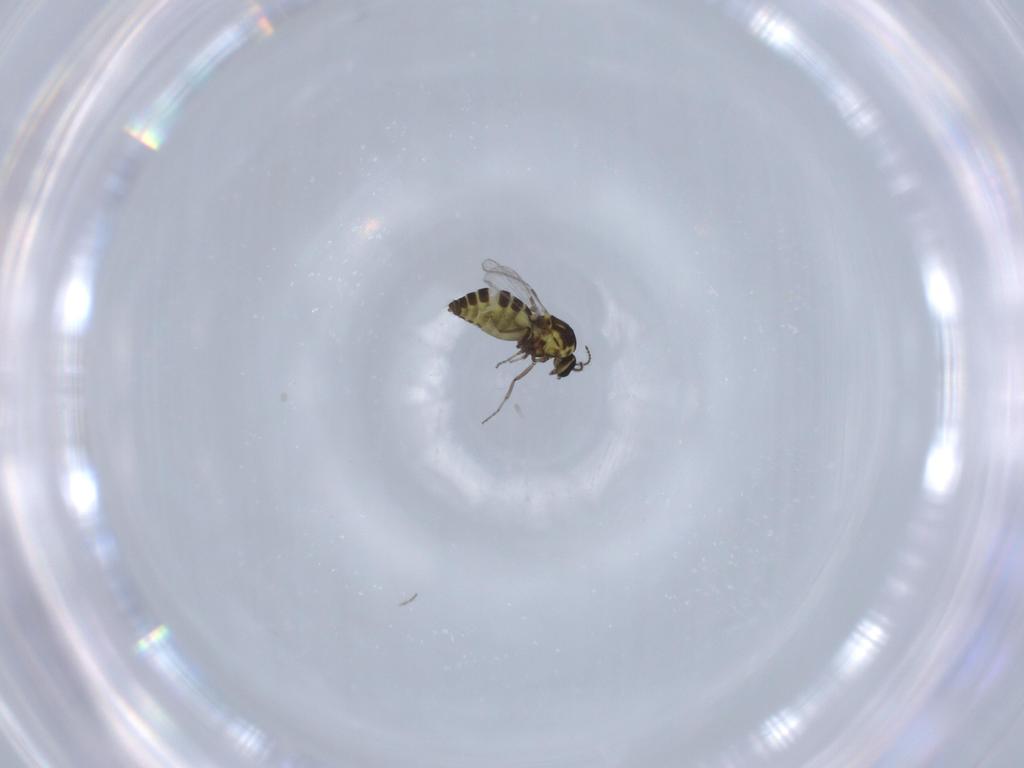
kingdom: Animalia
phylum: Arthropoda
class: Insecta
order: Diptera
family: Ceratopogonidae
